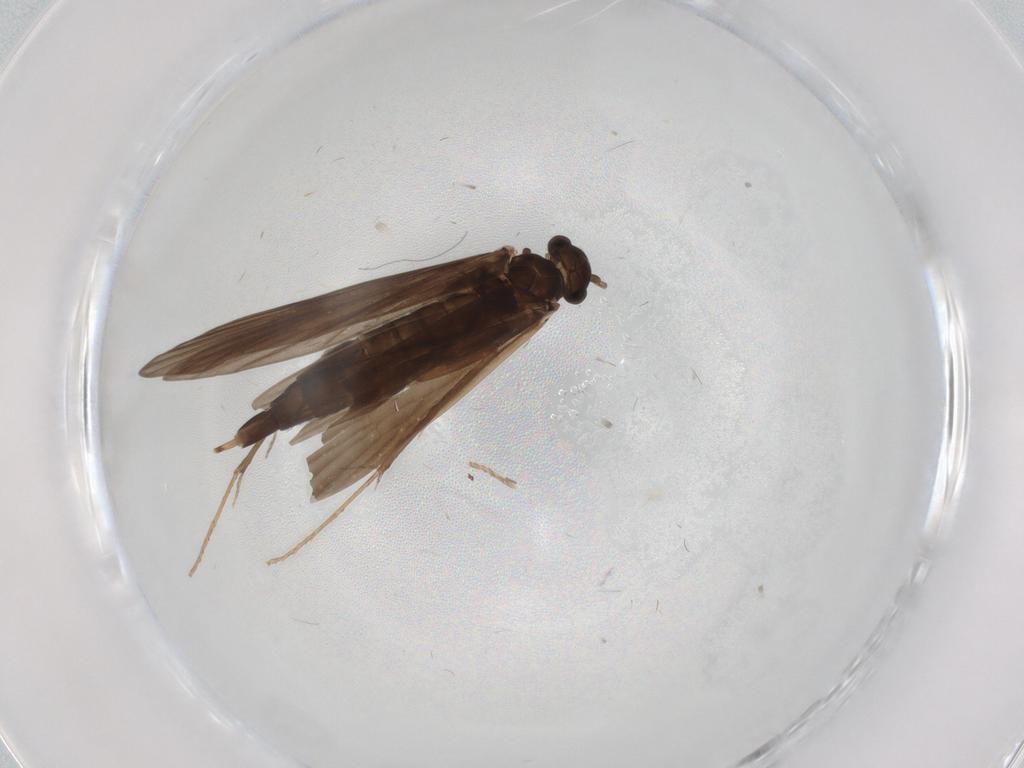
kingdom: Animalia
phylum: Arthropoda
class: Insecta
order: Trichoptera
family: Xiphocentronidae
